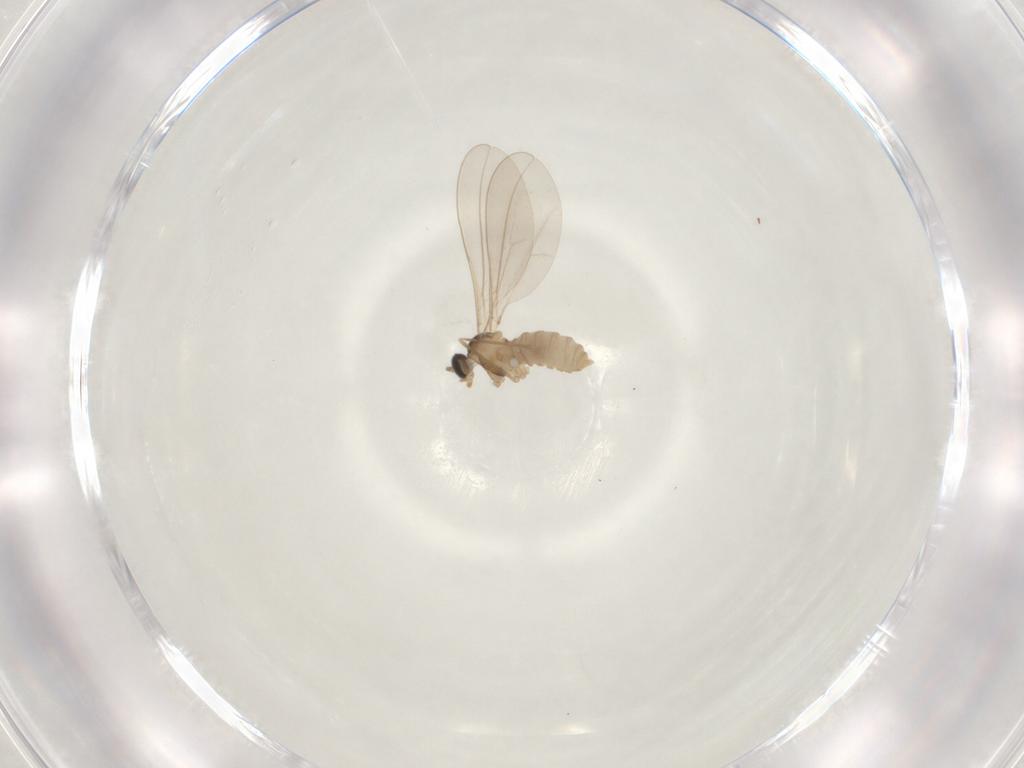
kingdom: Animalia
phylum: Arthropoda
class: Insecta
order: Diptera
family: Cecidomyiidae
